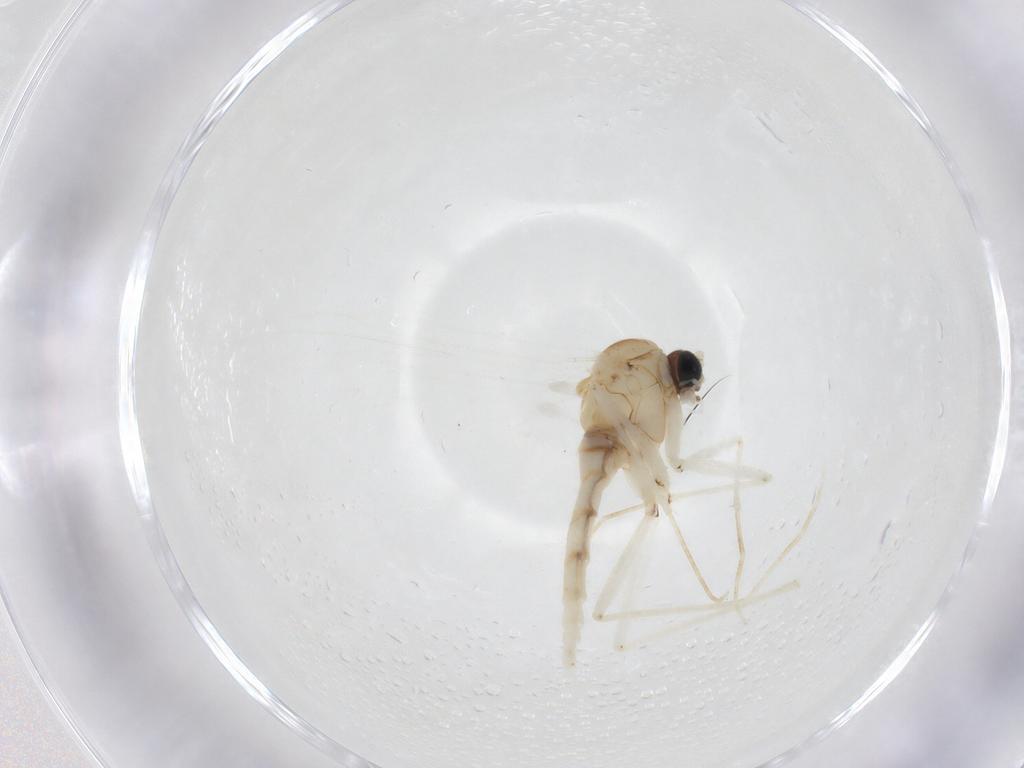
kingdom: Animalia
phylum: Arthropoda
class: Insecta
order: Diptera
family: Sciaridae
